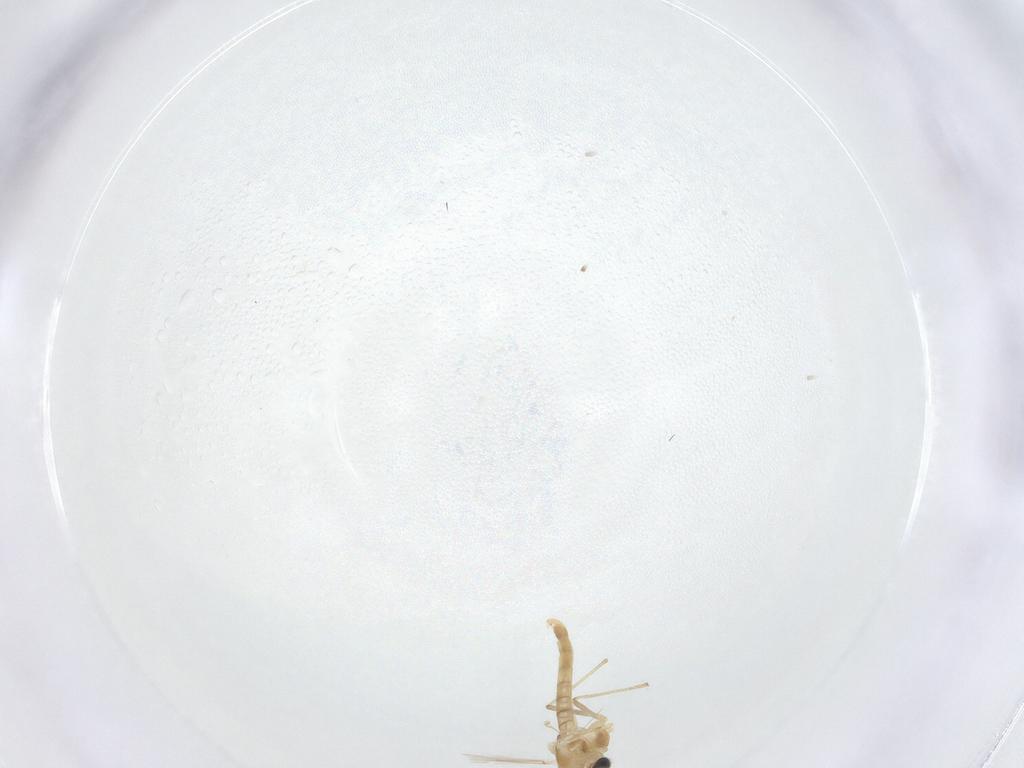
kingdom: Animalia
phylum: Arthropoda
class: Insecta
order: Diptera
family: Chironomidae
